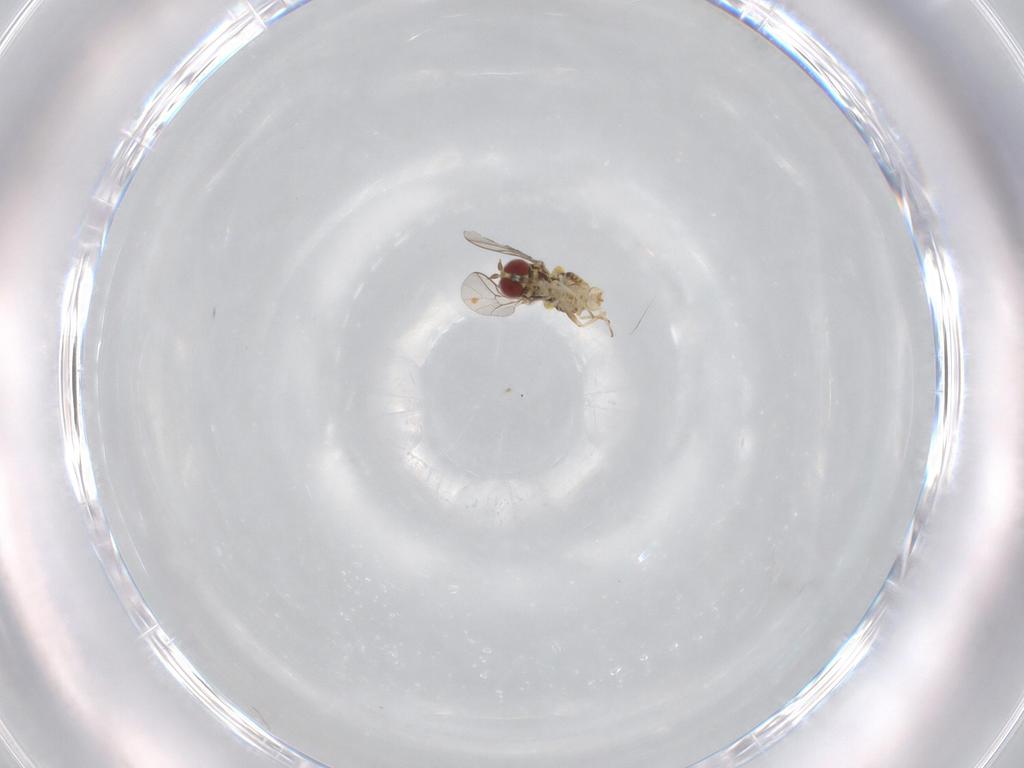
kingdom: Animalia
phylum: Arthropoda
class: Insecta
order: Diptera
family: Bombyliidae
